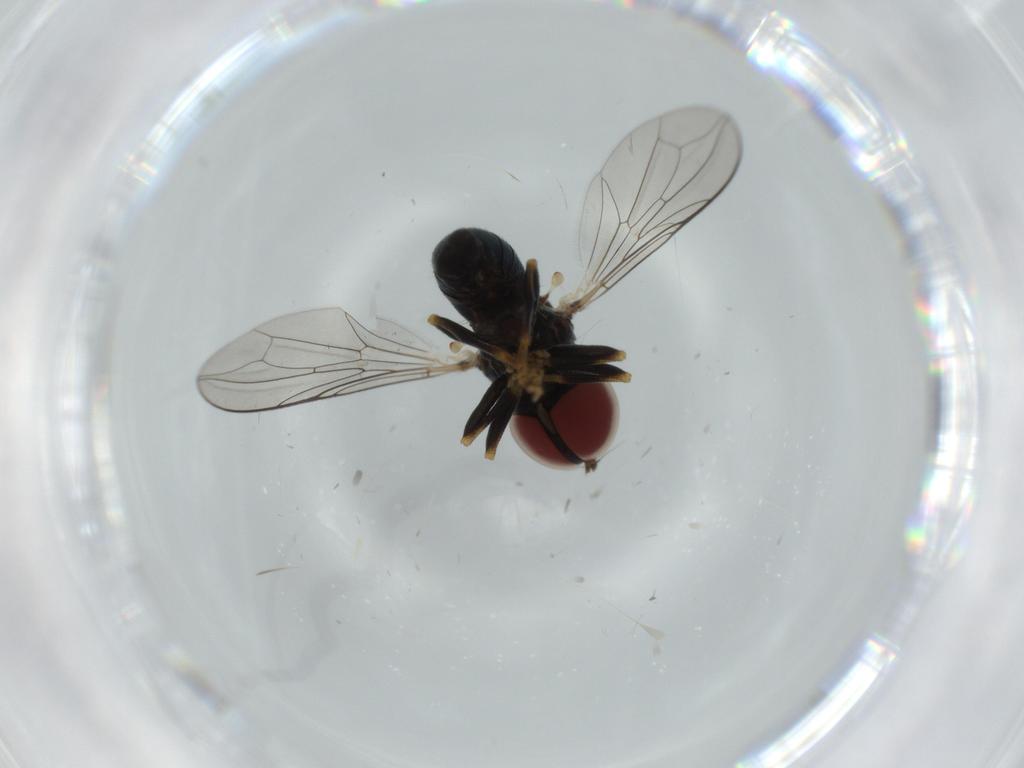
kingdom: Animalia
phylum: Arthropoda
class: Insecta
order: Diptera
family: Pipunculidae
